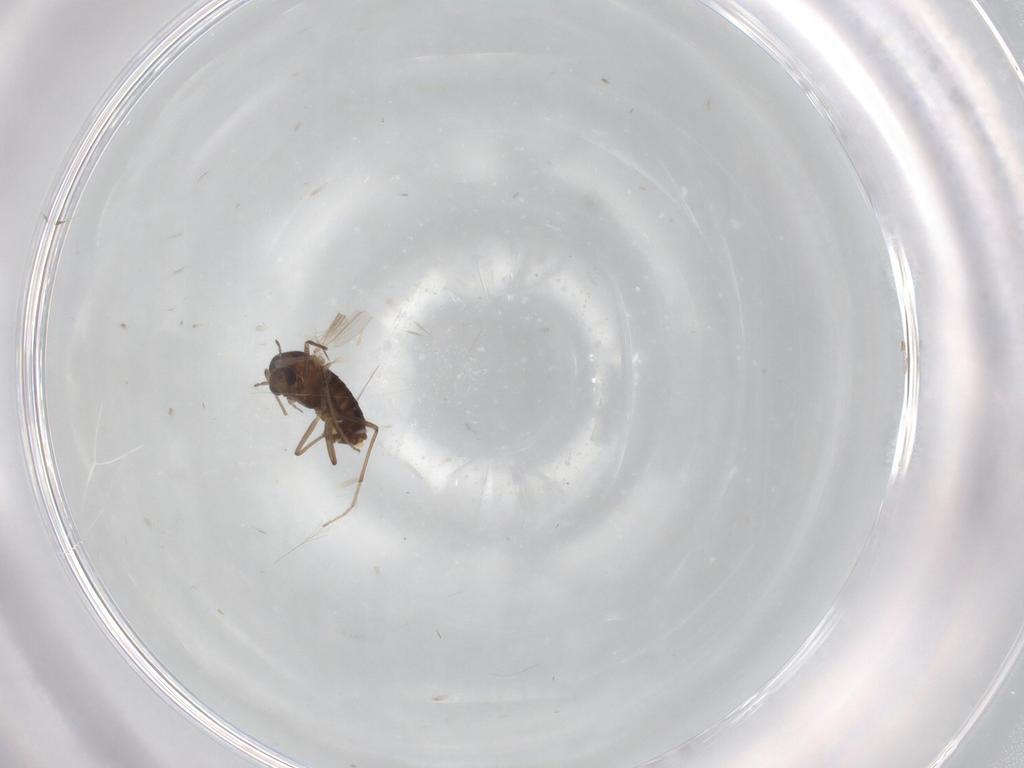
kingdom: Animalia
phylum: Arthropoda
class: Insecta
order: Diptera
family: Chironomidae
